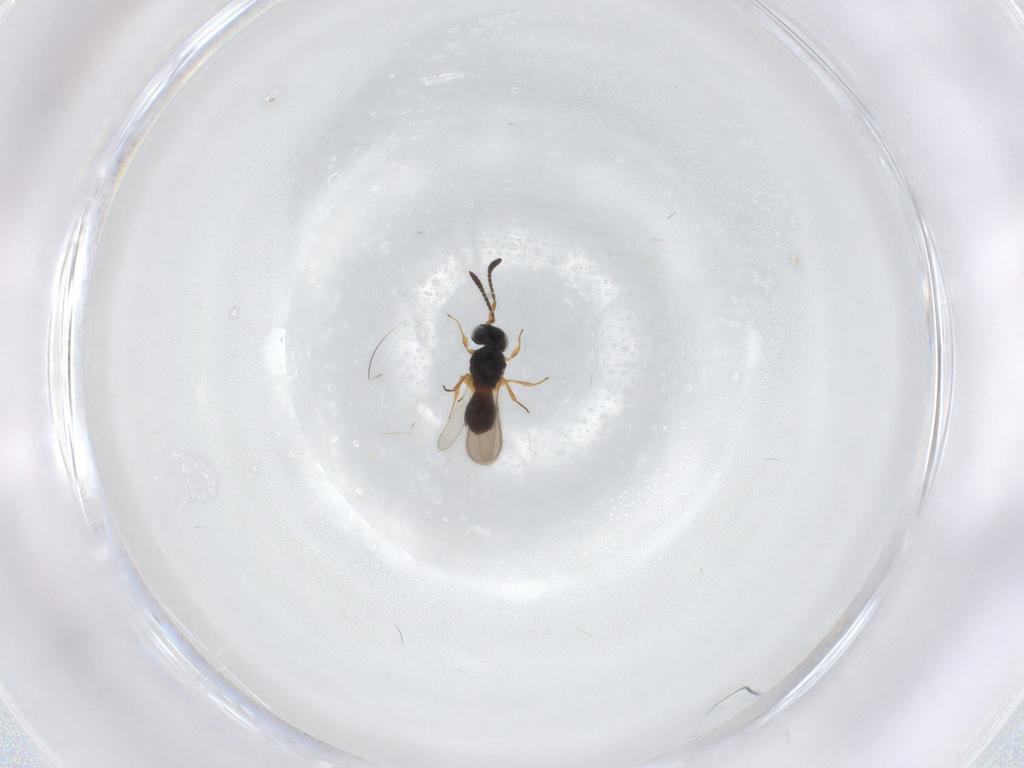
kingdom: Animalia
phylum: Arthropoda
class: Insecta
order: Hymenoptera
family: Scelionidae
